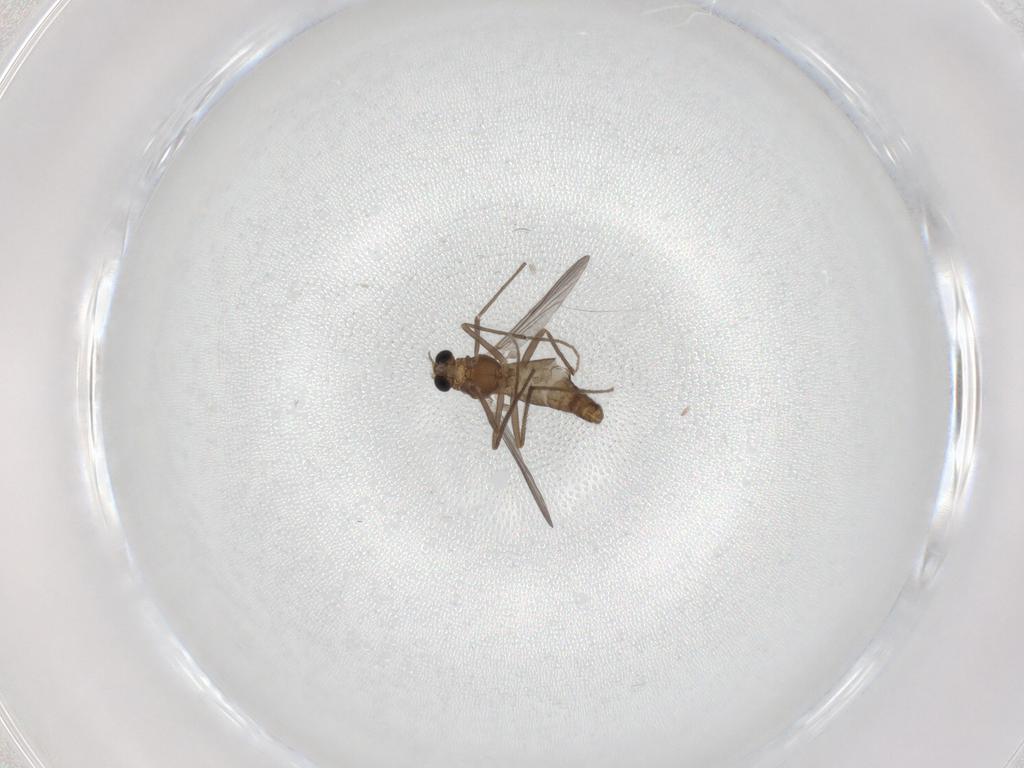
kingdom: Animalia
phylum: Arthropoda
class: Insecta
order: Diptera
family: Chironomidae
